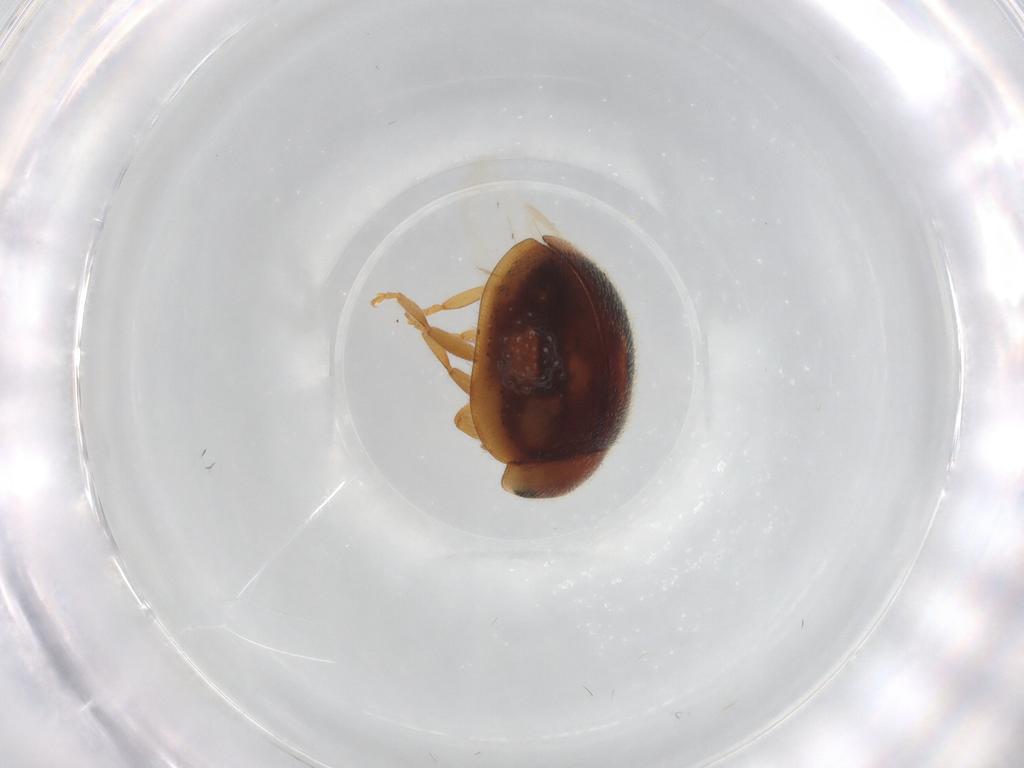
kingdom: Animalia
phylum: Arthropoda
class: Insecta
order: Coleoptera
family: Coccinellidae
